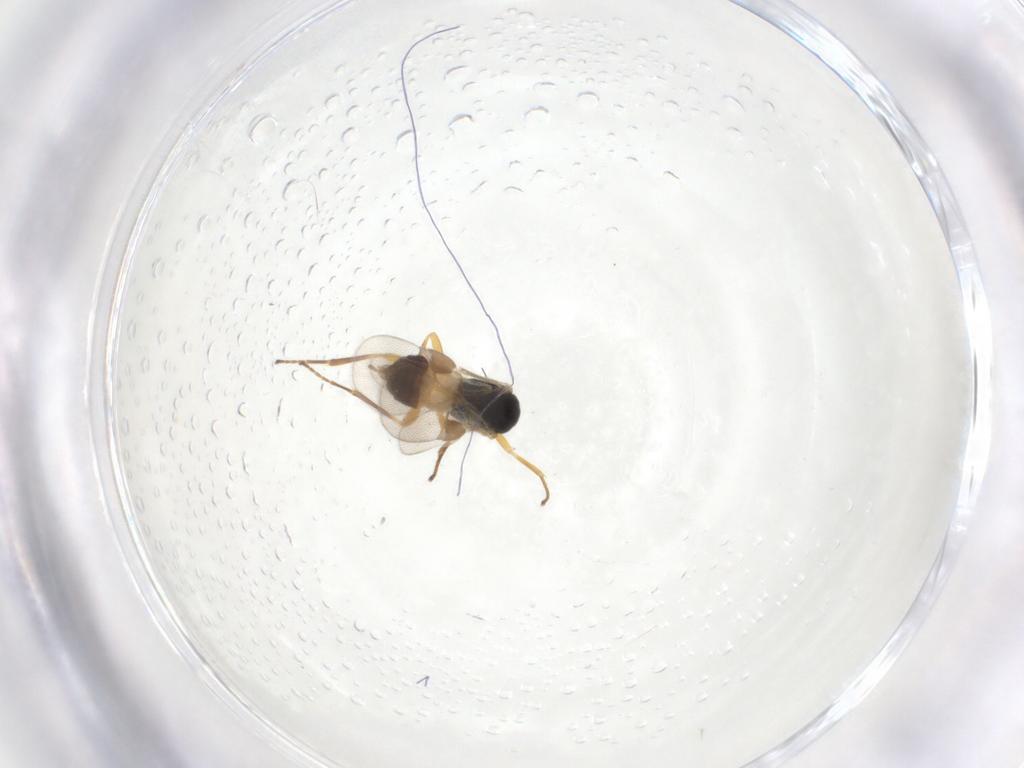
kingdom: Animalia
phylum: Arthropoda
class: Insecta
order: Hymenoptera
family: Braconidae
